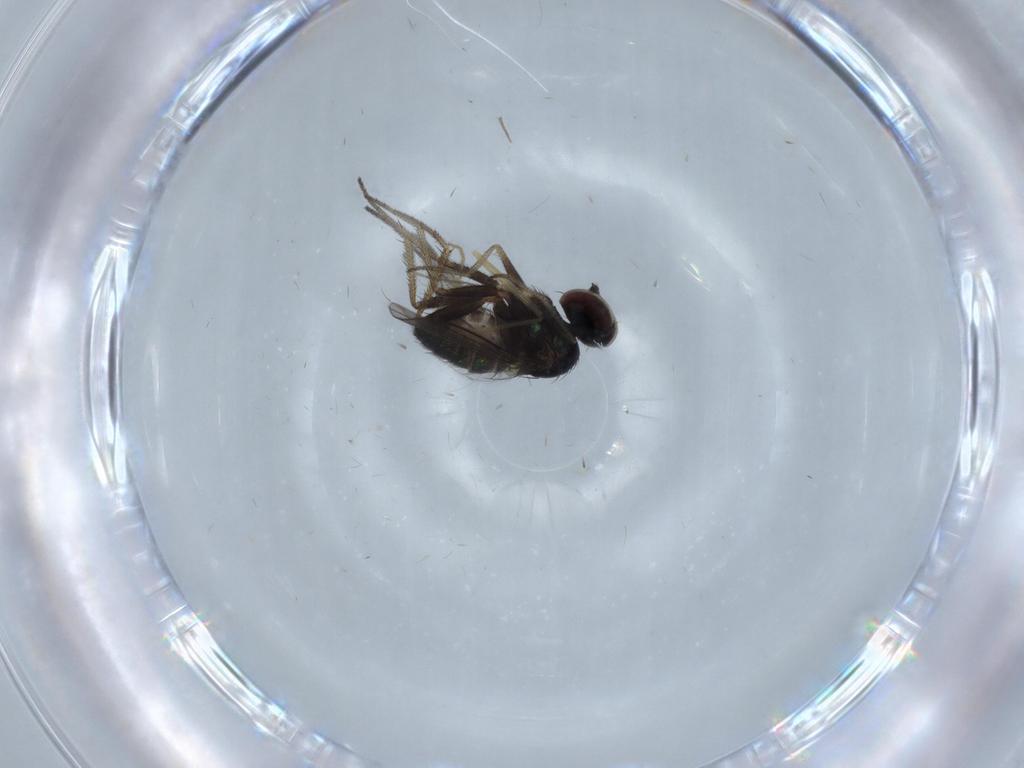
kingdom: Animalia
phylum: Arthropoda
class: Insecta
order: Diptera
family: Chironomidae
